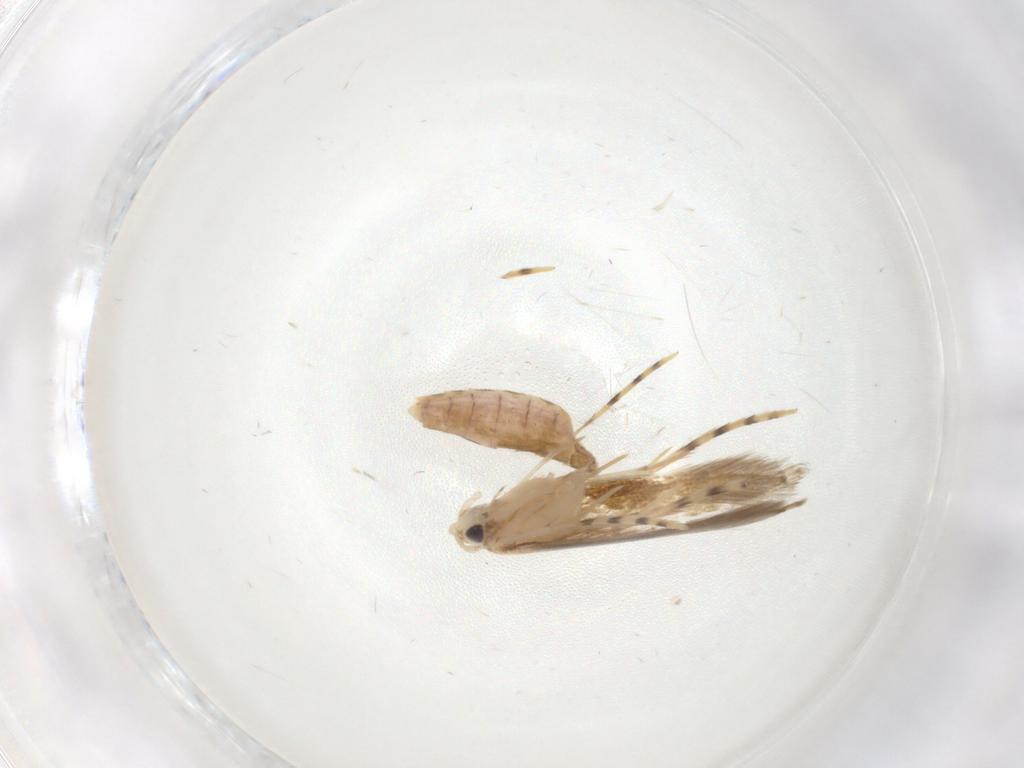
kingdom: Animalia
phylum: Arthropoda
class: Insecta
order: Lepidoptera
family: Lyonetiidae
